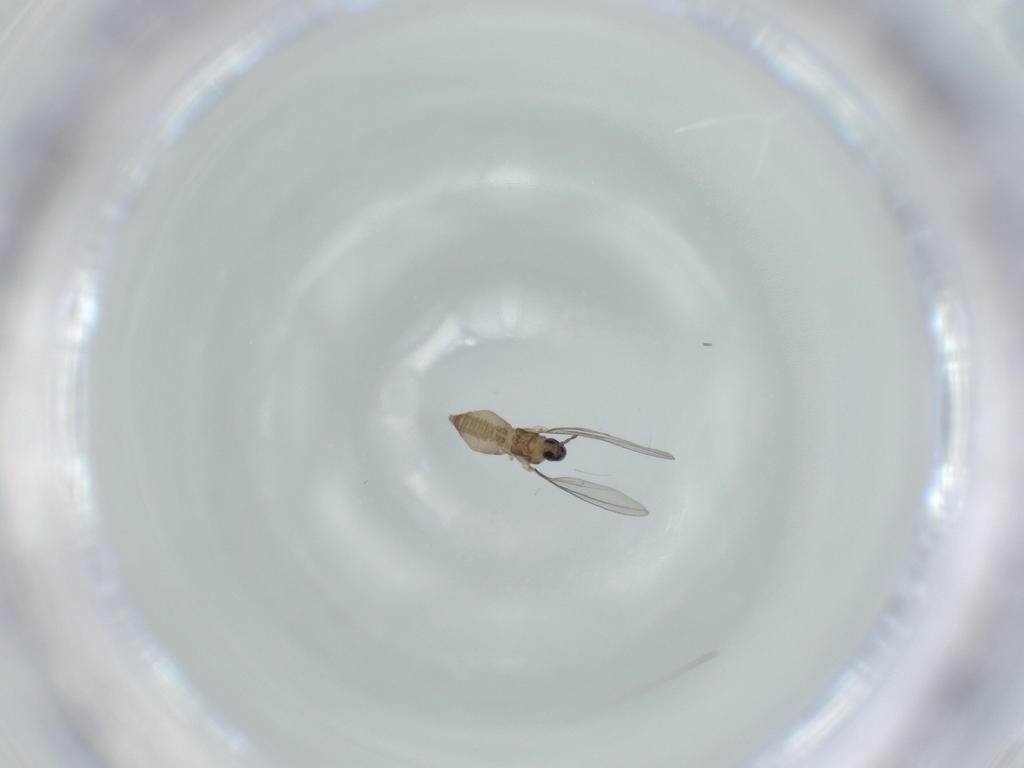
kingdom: Animalia
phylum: Arthropoda
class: Insecta
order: Diptera
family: Cecidomyiidae
